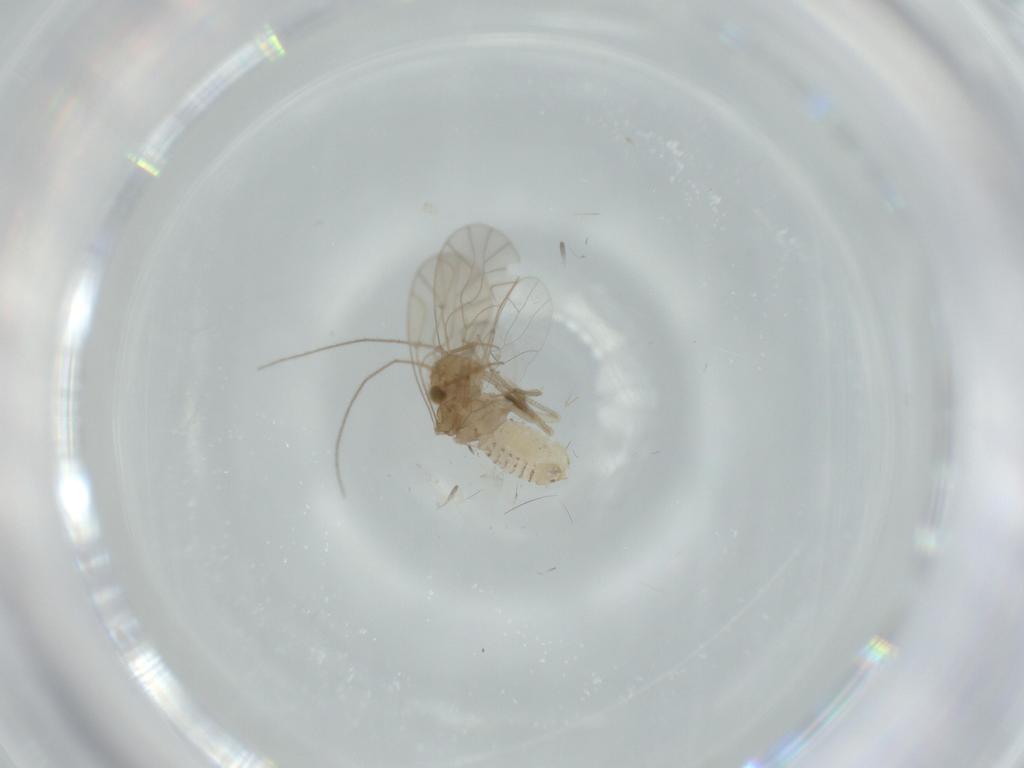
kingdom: Animalia
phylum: Arthropoda
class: Insecta
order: Psocodea
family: Lachesillidae
